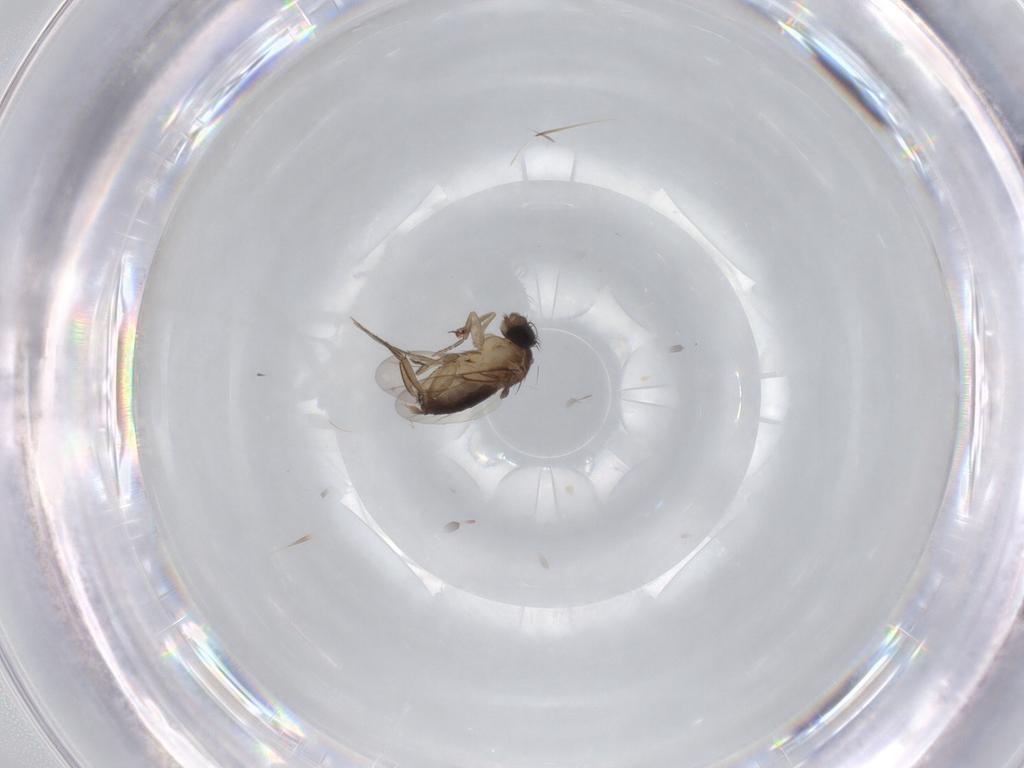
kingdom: Animalia
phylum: Arthropoda
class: Insecta
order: Diptera
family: Cecidomyiidae
